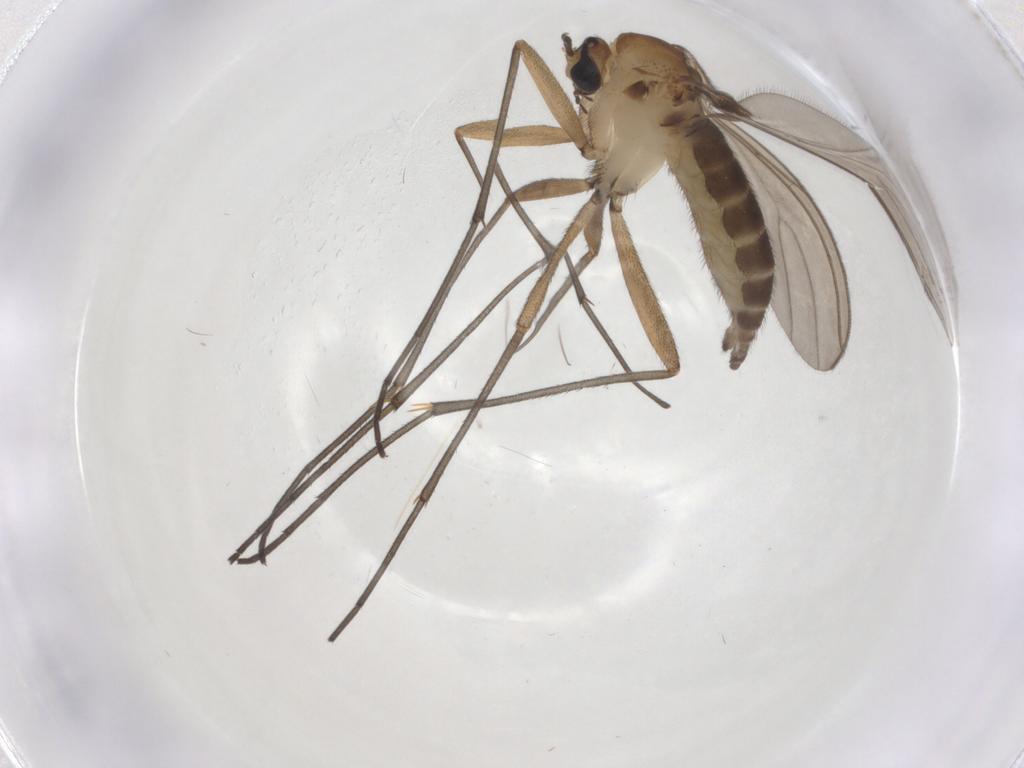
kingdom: Animalia
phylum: Arthropoda
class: Insecta
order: Diptera
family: Sciaridae
